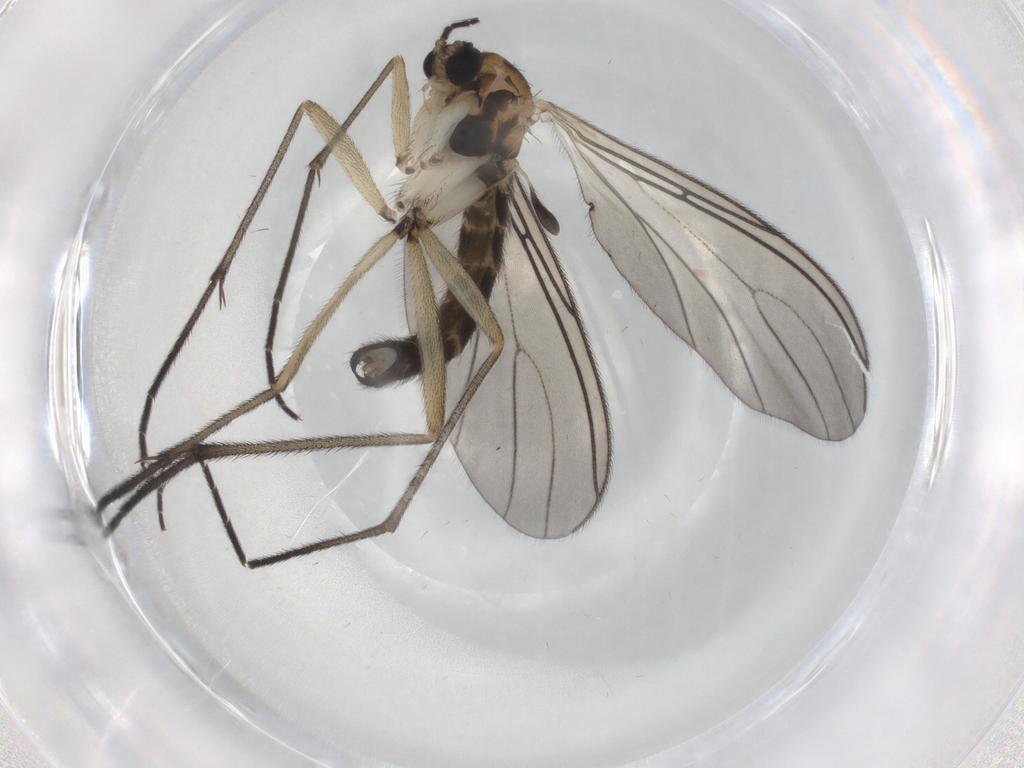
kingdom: Animalia
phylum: Arthropoda
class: Insecta
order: Diptera
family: Sciaridae
